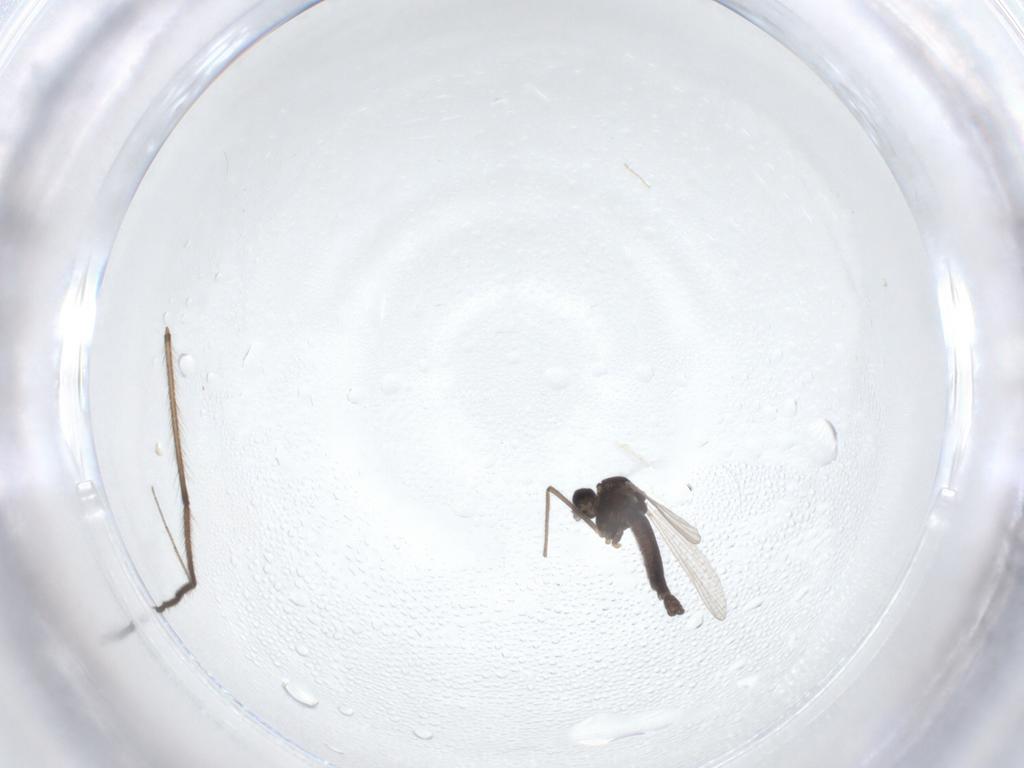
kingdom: Animalia
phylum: Arthropoda
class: Insecta
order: Diptera
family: Chironomidae
